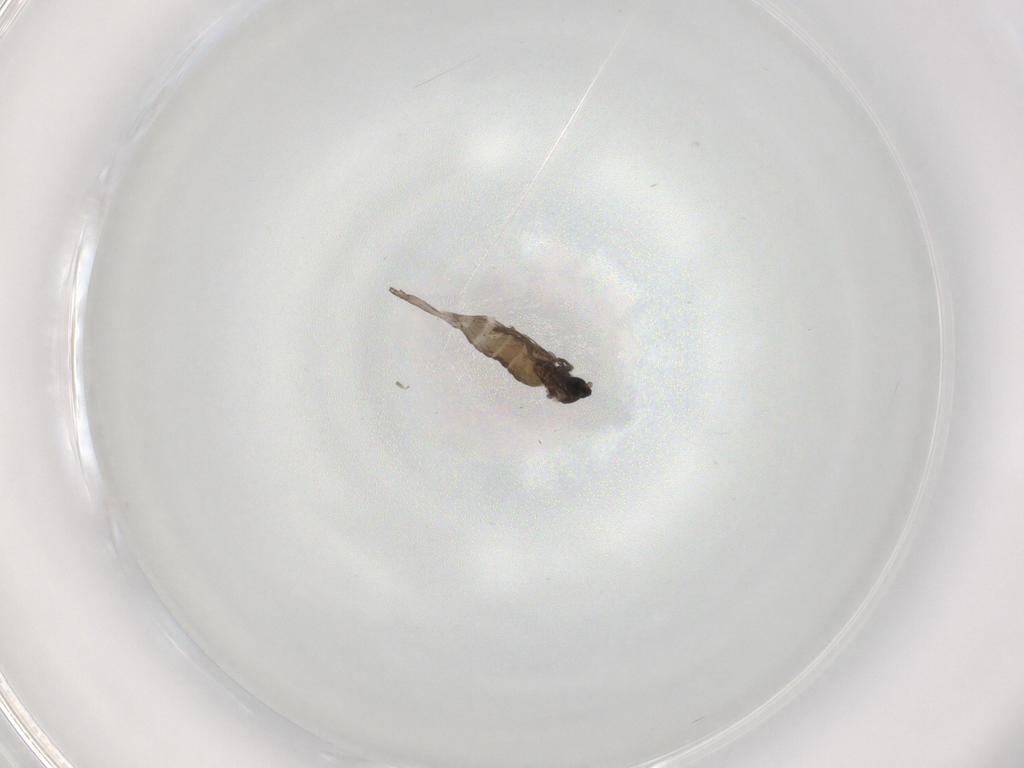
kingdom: Animalia
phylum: Arthropoda
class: Insecta
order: Diptera
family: Cecidomyiidae
